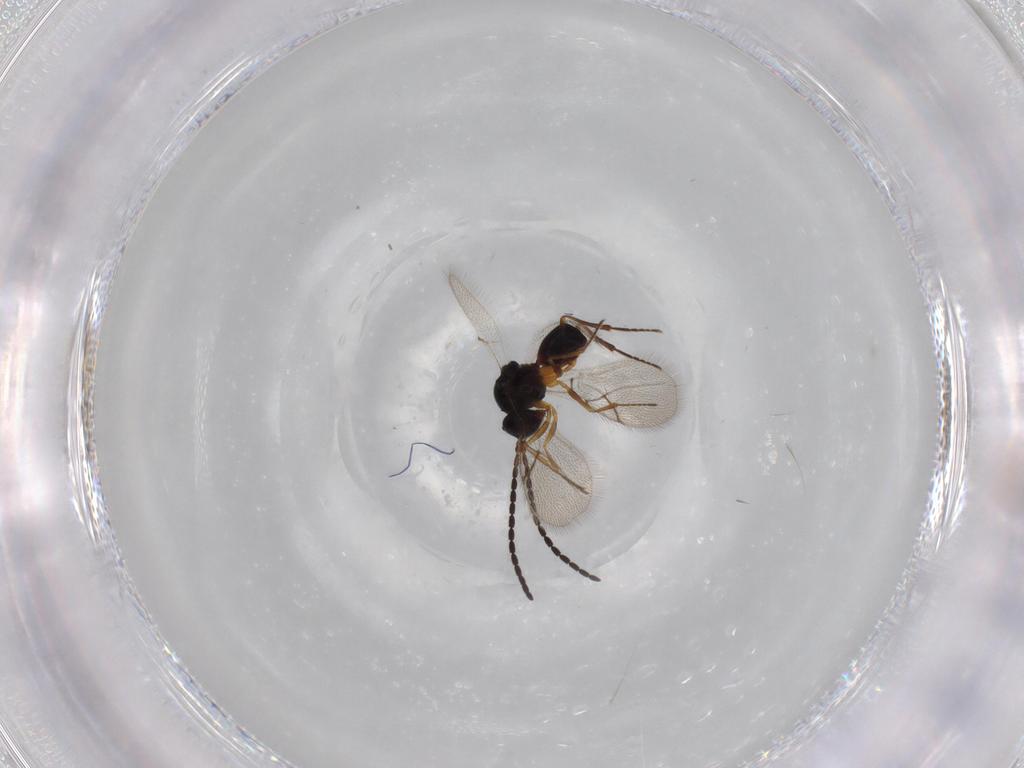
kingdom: Animalia
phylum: Arthropoda
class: Insecta
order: Hymenoptera
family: Figitidae
